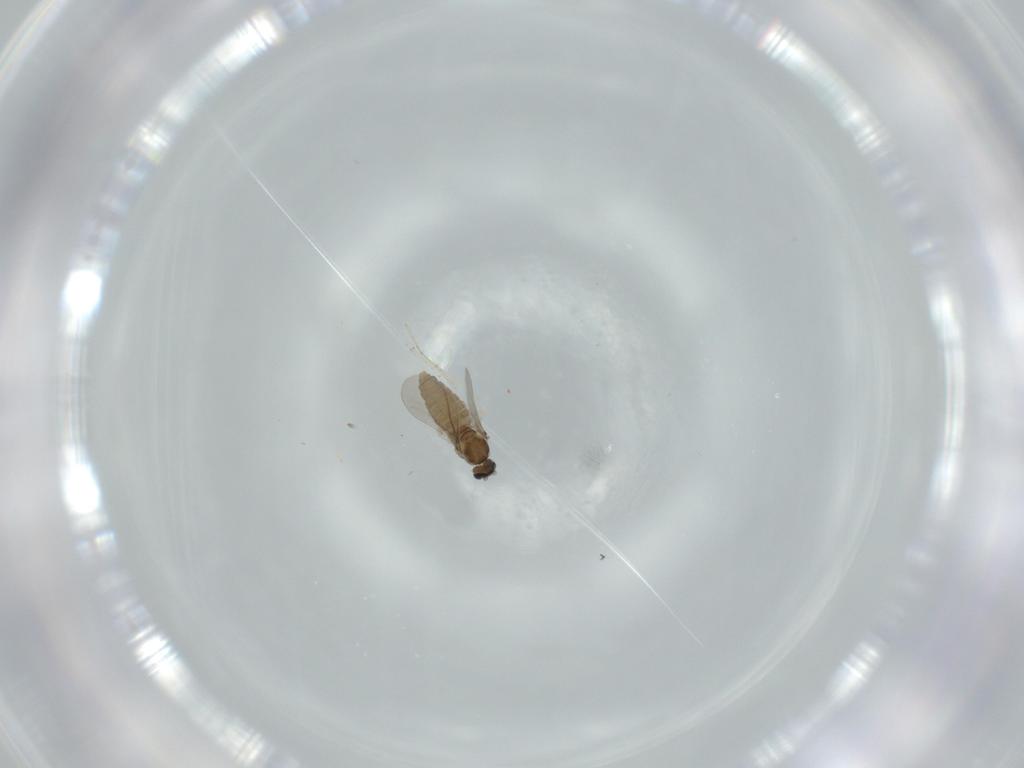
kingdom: Animalia
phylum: Arthropoda
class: Insecta
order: Diptera
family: Cecidomyiidae
